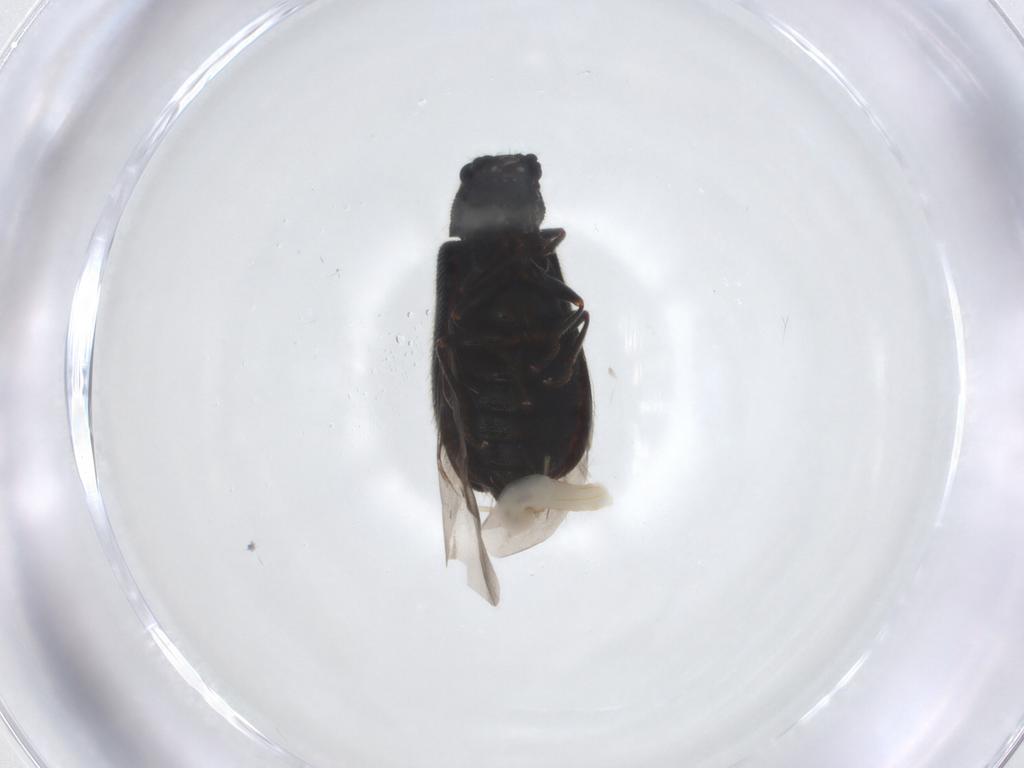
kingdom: Animalia
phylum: Arthropoda
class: Insecta
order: Coleoptera
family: Melyridae
